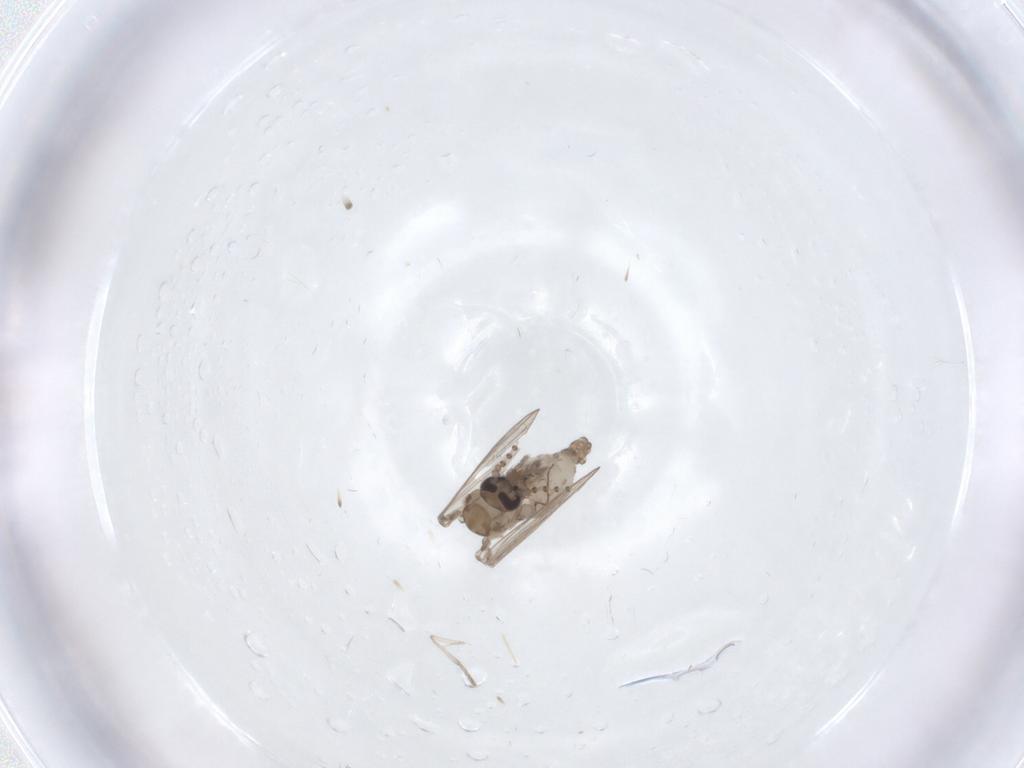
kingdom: Animalia
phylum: Arthropoda
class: Insecta
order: Diptera
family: Psychodidae
